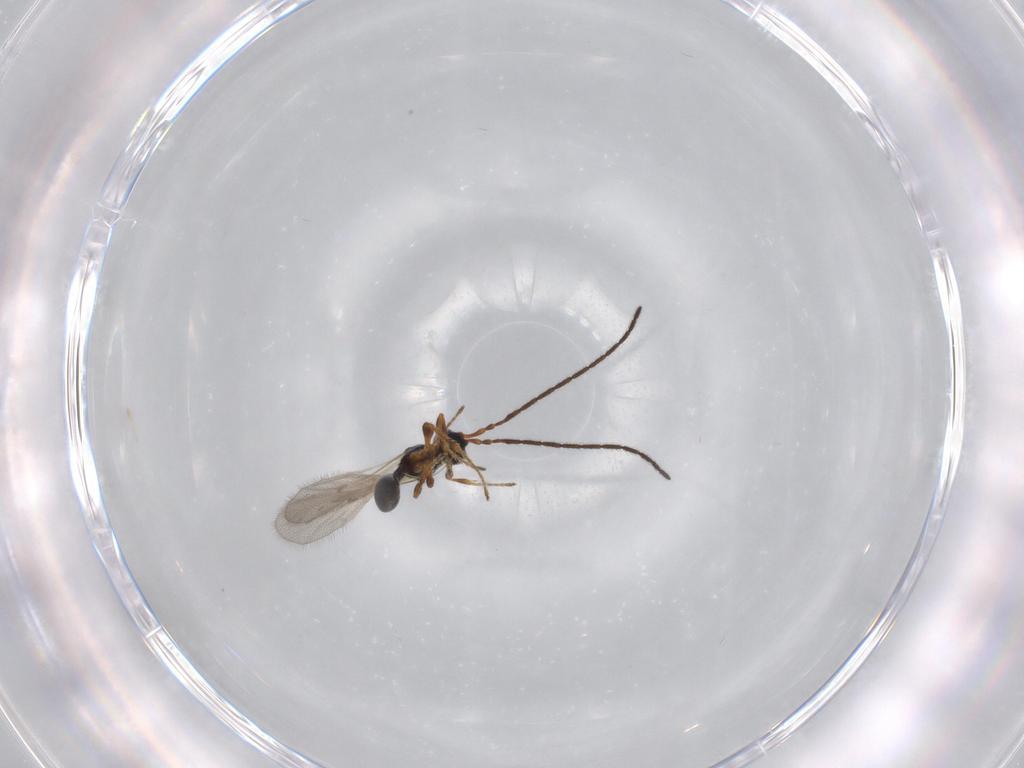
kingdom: Animalia
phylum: Arthropoda
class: Insecta
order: Hymenoptera
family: Diapriidae
